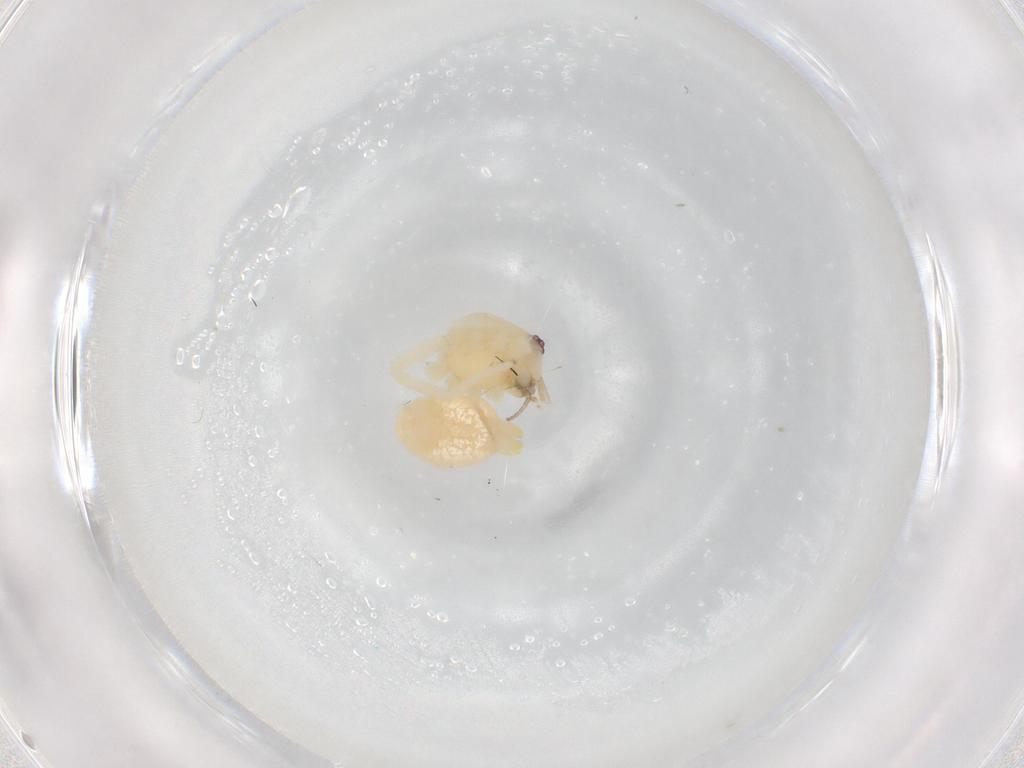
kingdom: Animalia
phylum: Arthropoda
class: Arachnida
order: Araneae
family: Cheiracanthiidae
